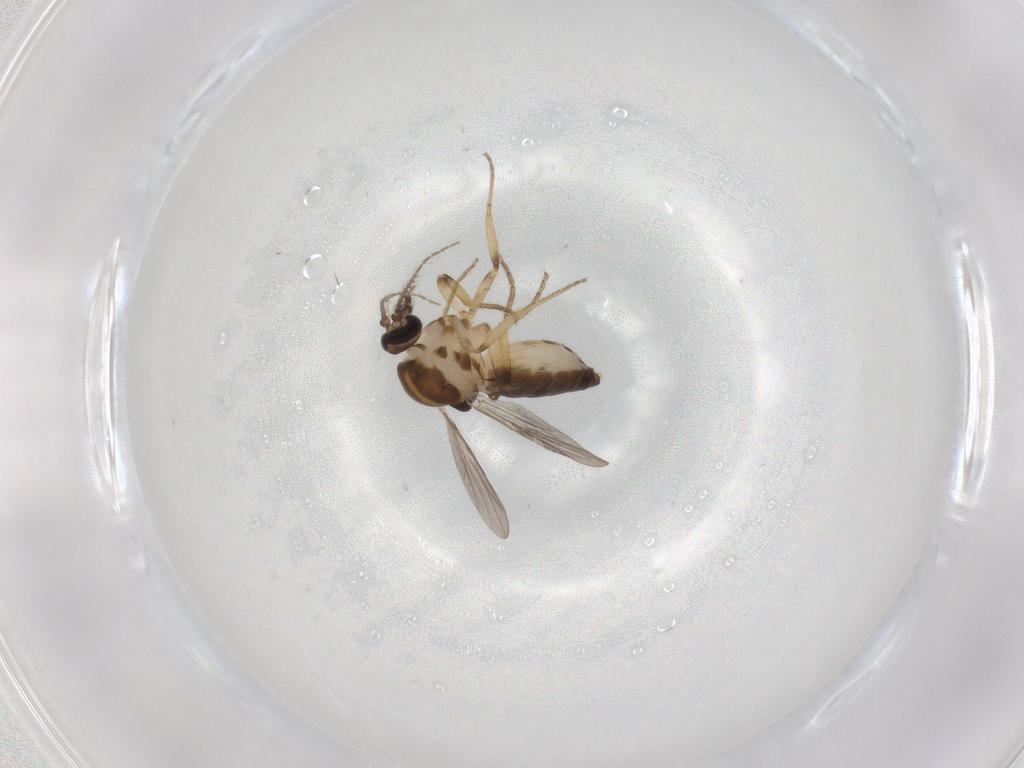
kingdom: Animalia
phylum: Arthropoda
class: Insecta
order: Diptera
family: Ceratopogonidae
